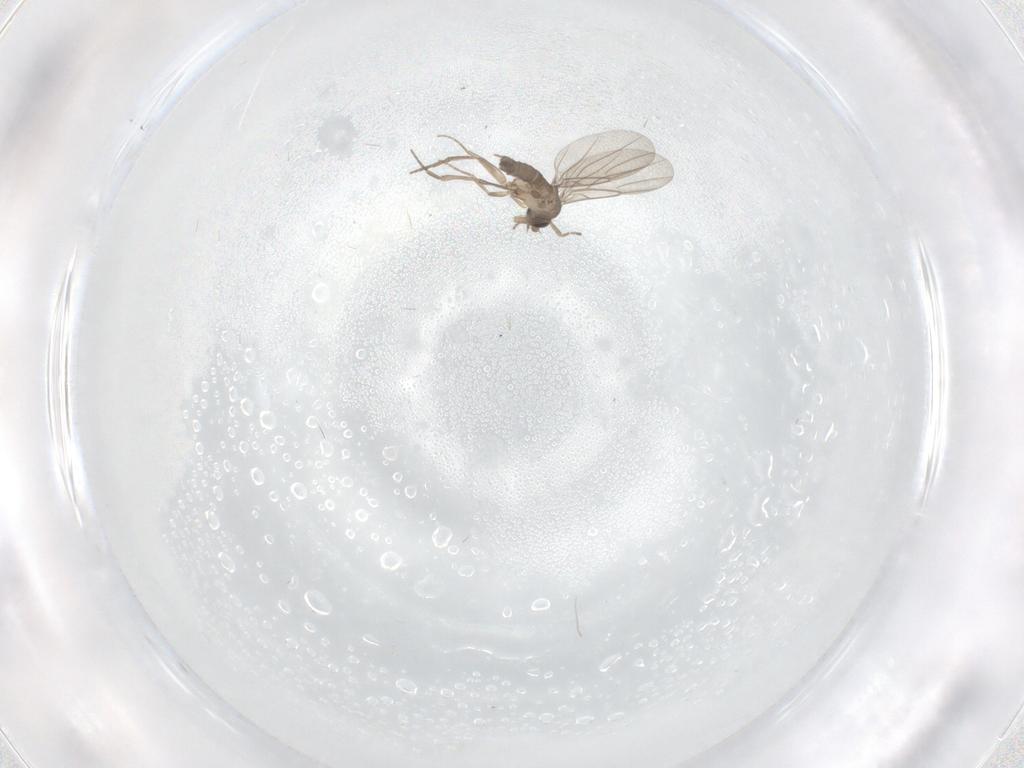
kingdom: Animalia
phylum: Arthropoda
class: Insecta
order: Diptera
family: Phoridae
